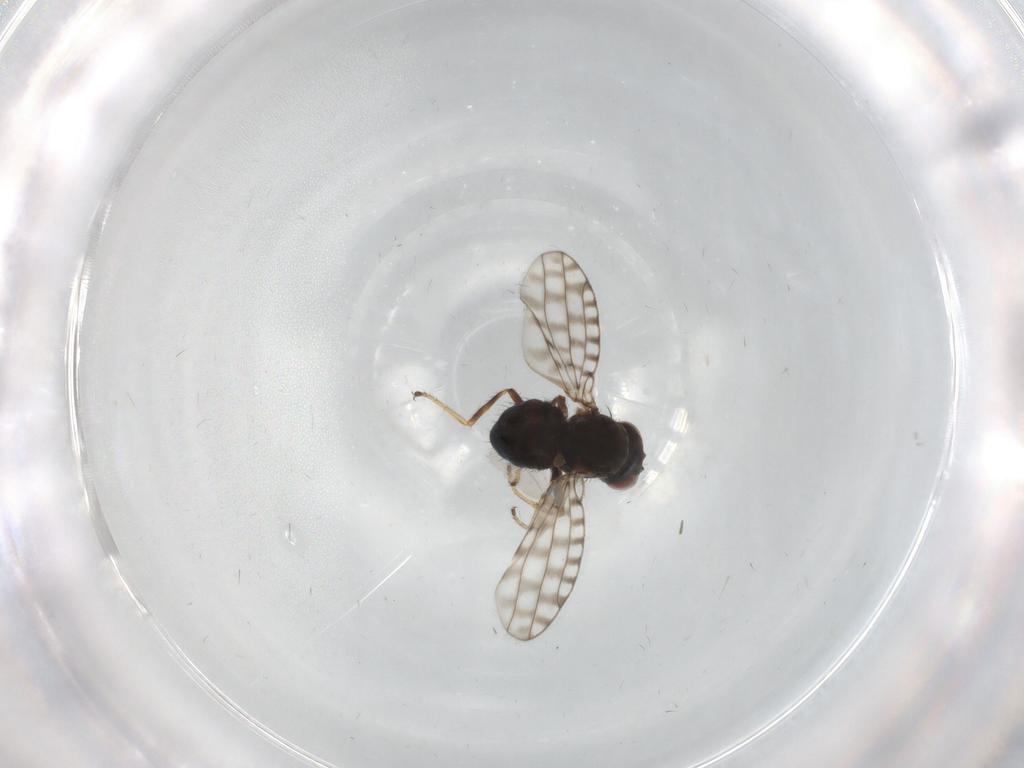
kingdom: Animalia
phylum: Arthropoda
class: Insecta
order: Diptera
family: Ephydridae
